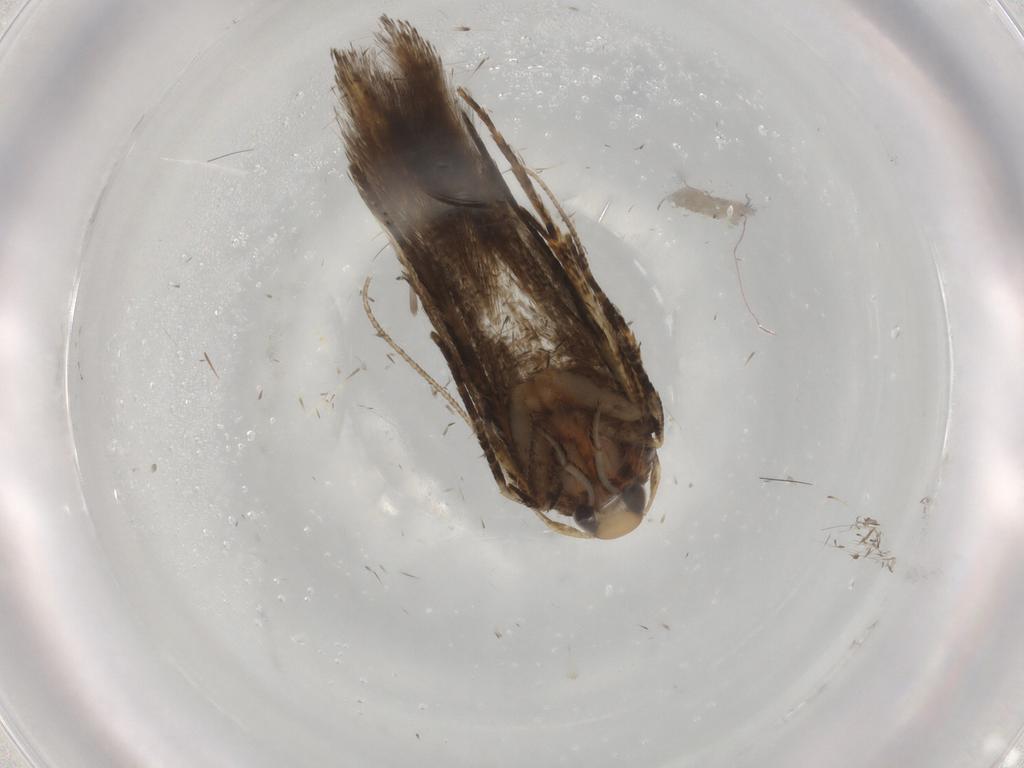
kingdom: Animalia
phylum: Arthropoda
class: Insecta
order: Lepidoptera
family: Cosmopterigidae
